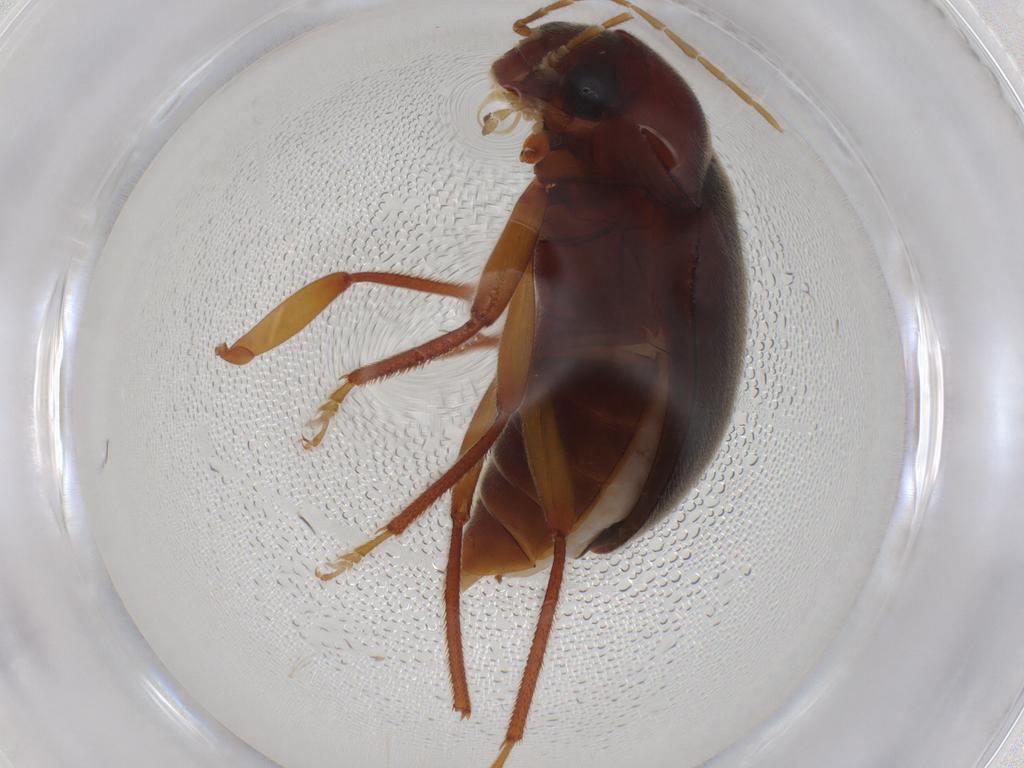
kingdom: Animalia
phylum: Arthropoda
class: Insecta
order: Coleoptera
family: Ptilodactylidae
